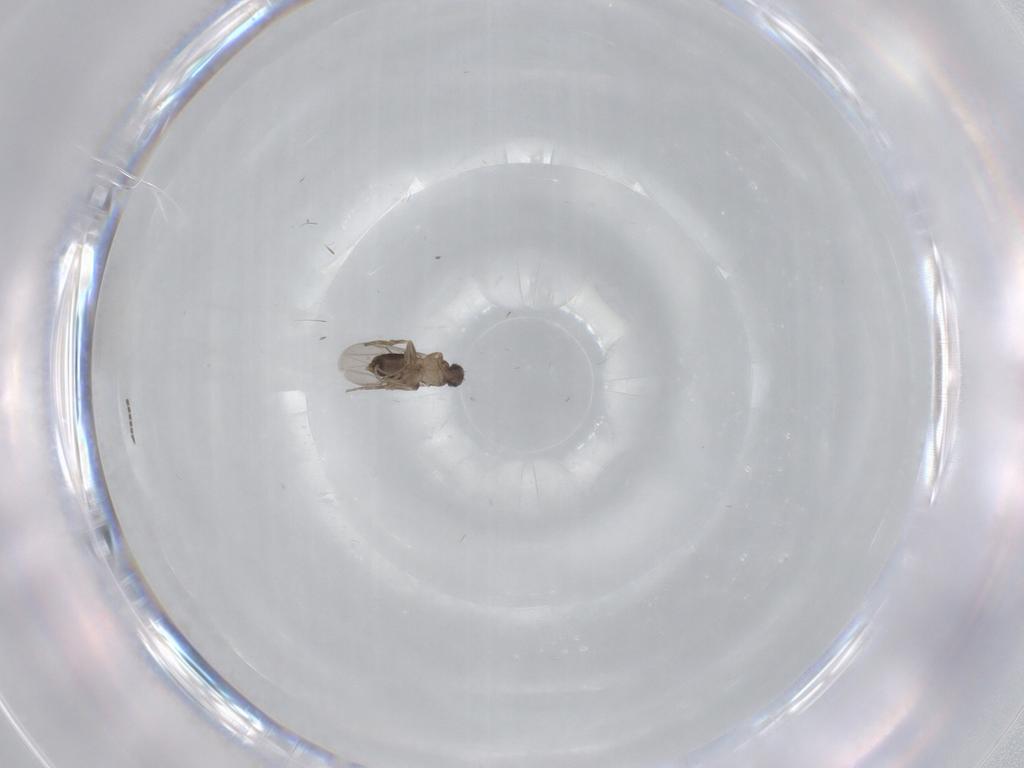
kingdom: Animalia
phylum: Arthropoda
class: Insecta
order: Diptera
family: Sciaridae
